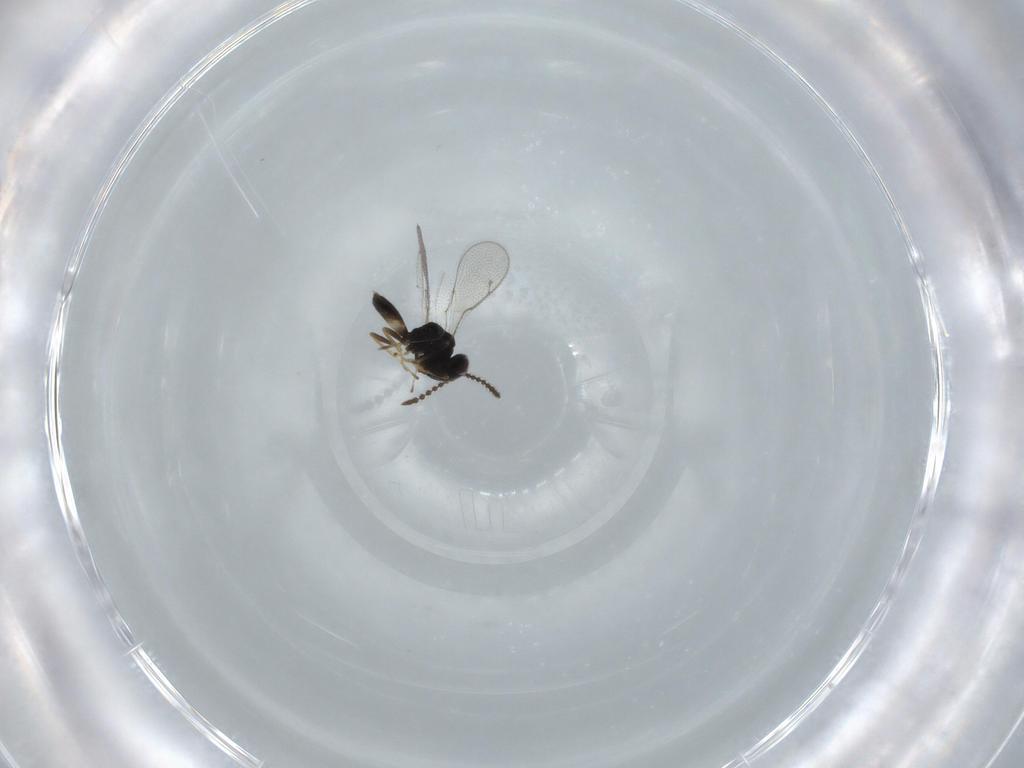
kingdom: Animalia
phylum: Arthropoda
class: Insecta
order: Hymenoptera
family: Pteromalidae
